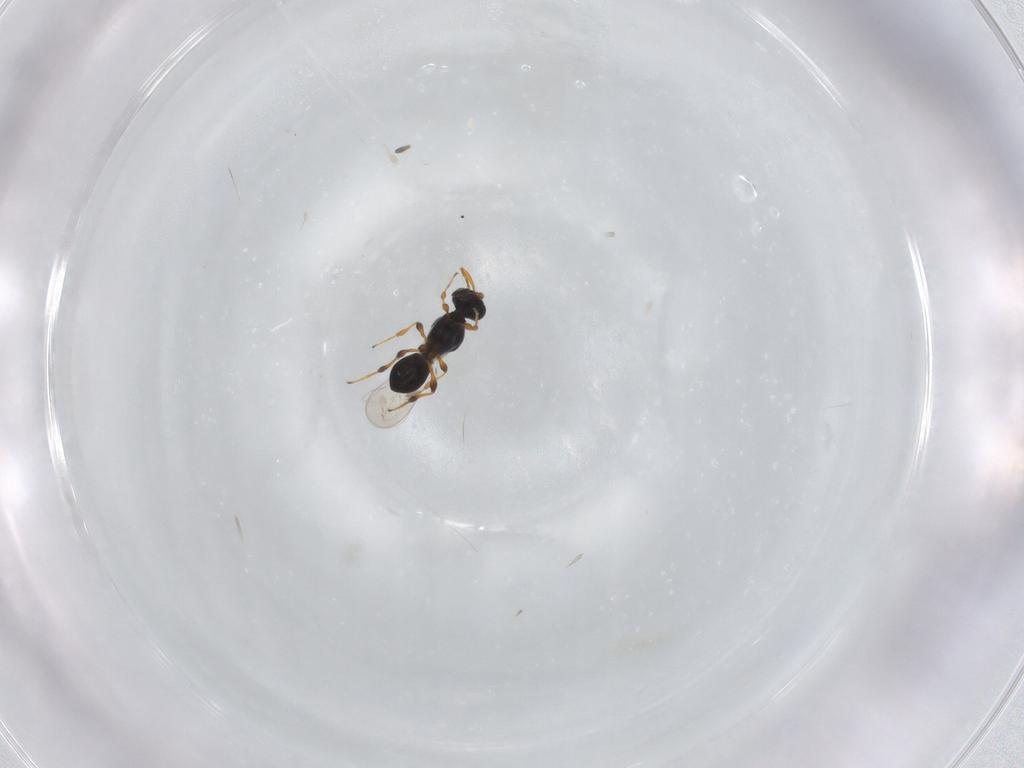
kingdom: Animalia
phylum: Arthropoda
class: Insecta
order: Hymenoptera
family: Platygastridae
